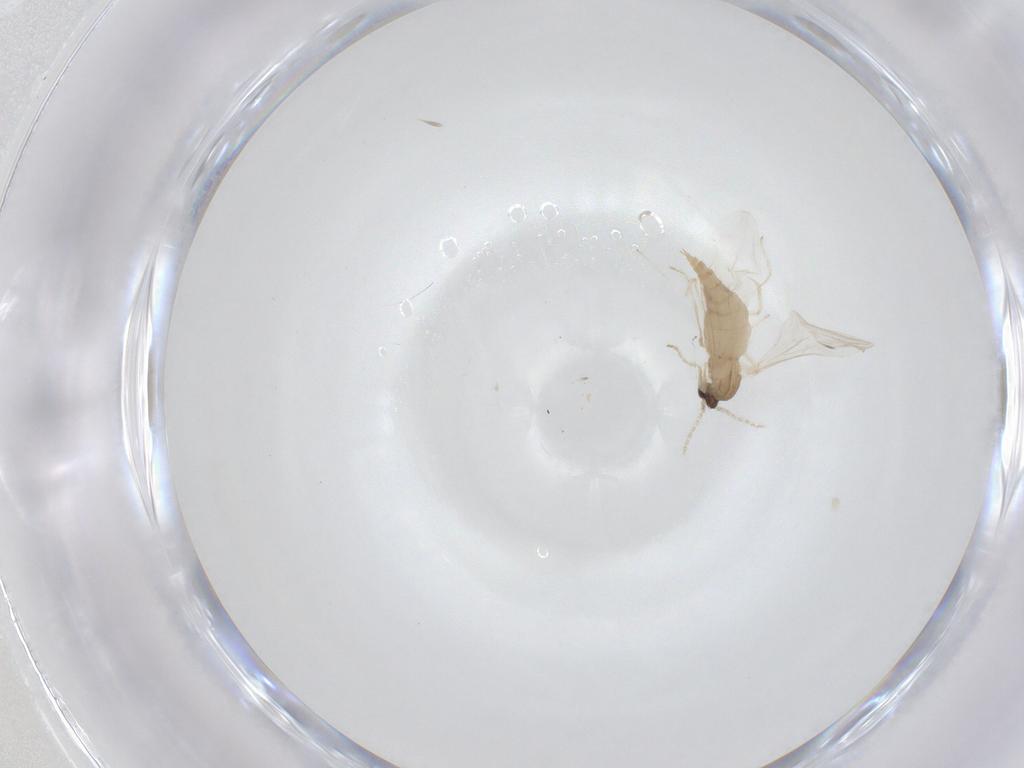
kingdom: Animalia
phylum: Arthropoda
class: Insecta
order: Diptera
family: Cecidomyiidae
